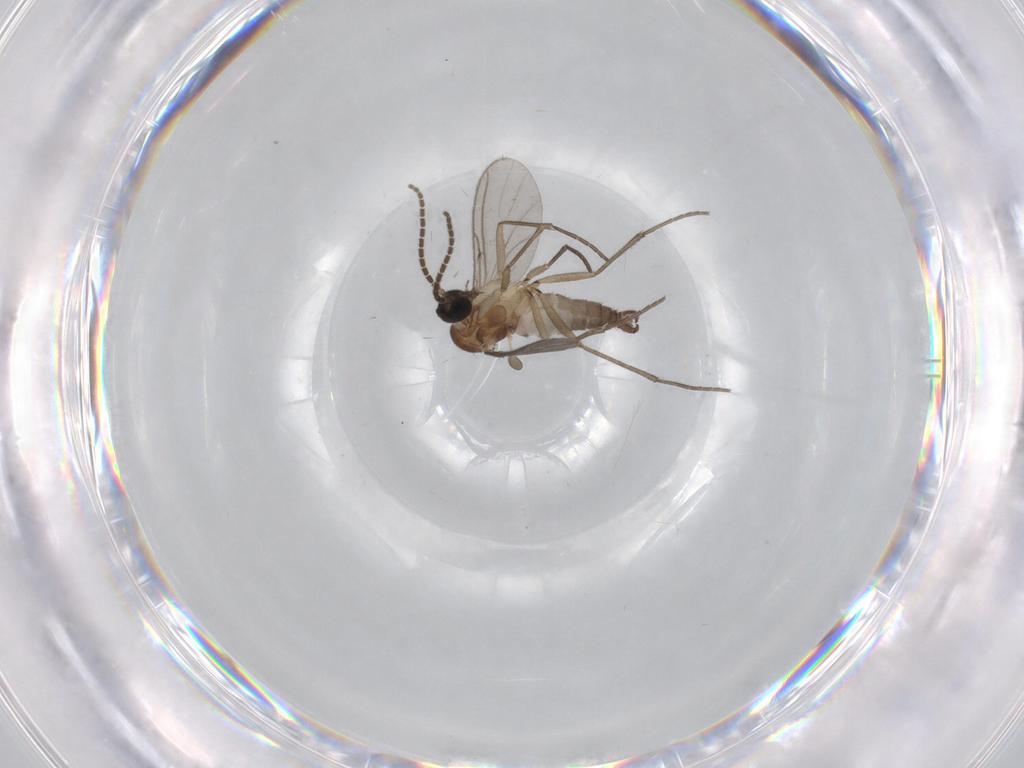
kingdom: Animalia
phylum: Arthropoda
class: Insecta
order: Diptera
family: Sciaridae
